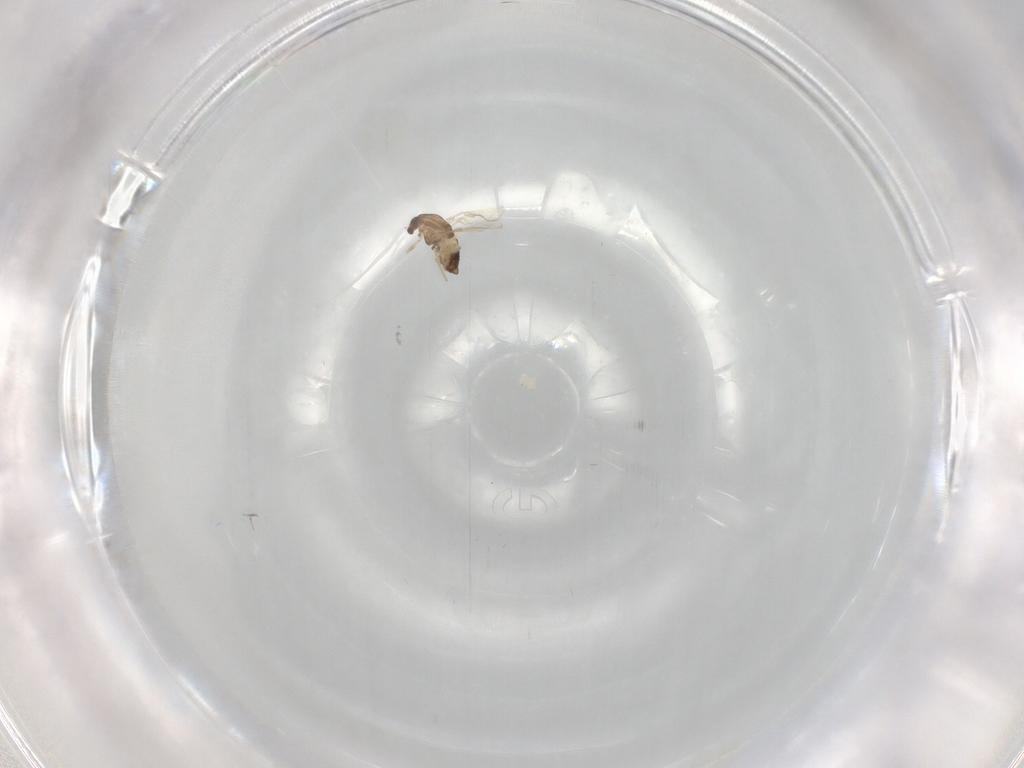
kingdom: Animalia
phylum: Arthropoda
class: Insecta
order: Diptera
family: Chironomidae
